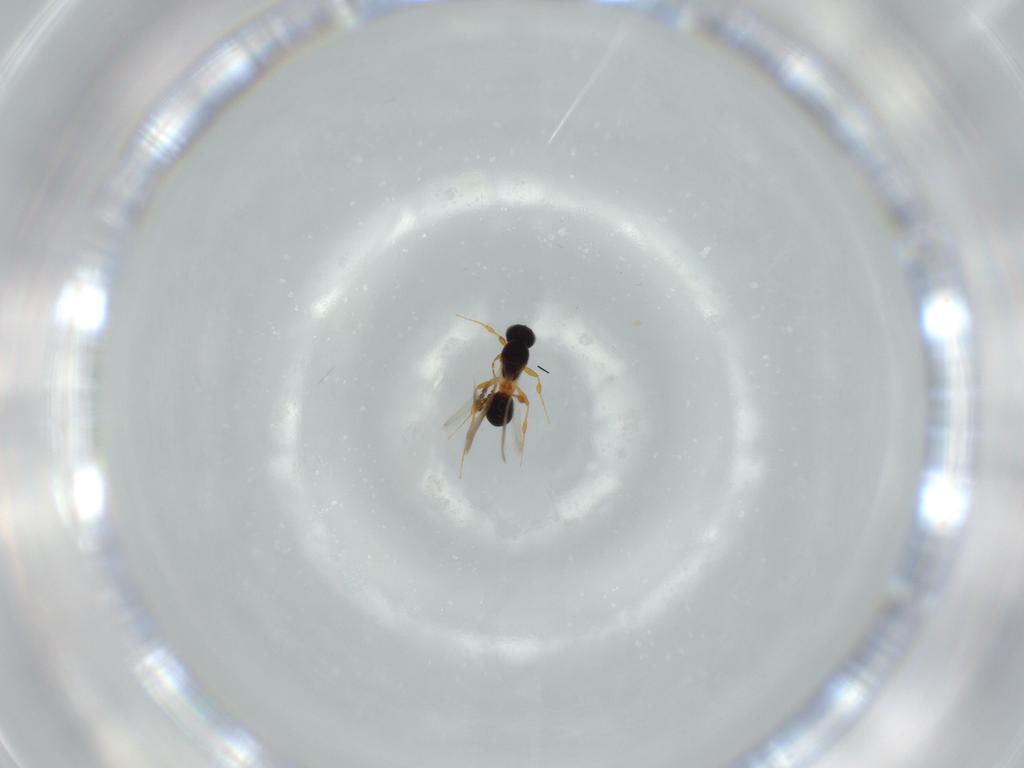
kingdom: Animalia
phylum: Arthropoda
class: Insecta
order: Hymenoptera
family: Platygastridae
